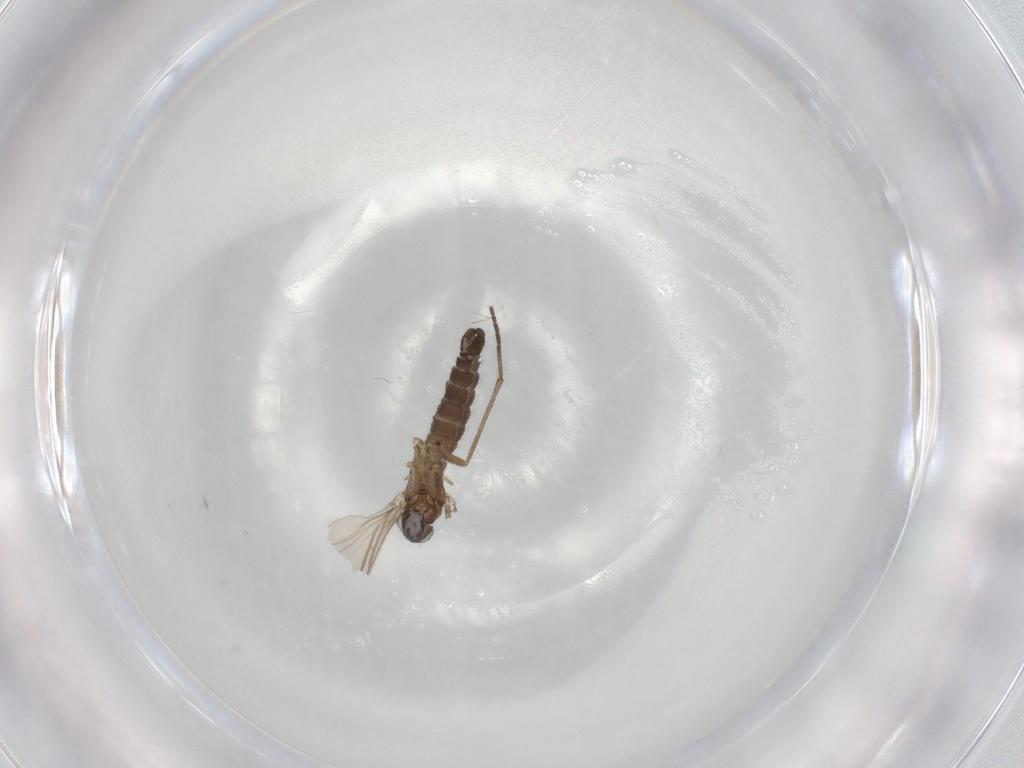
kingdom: Animalia
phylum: Arthropoda
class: Insecta
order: Diptera
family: Sciaridae
